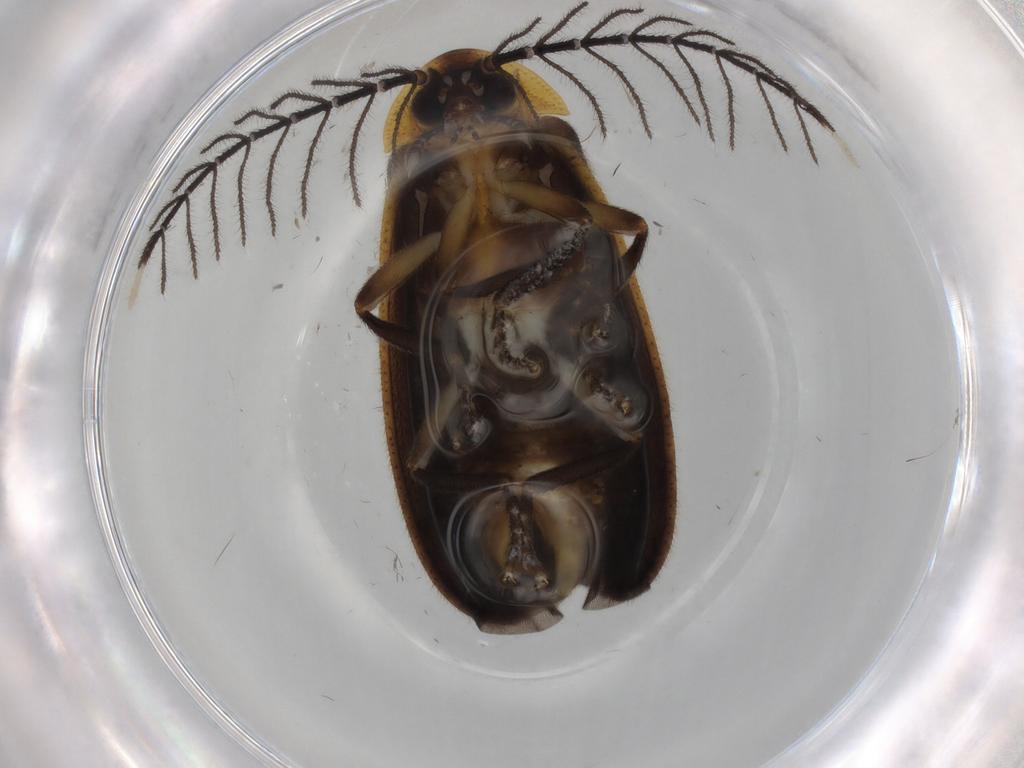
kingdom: Animalia
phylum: Arthropoda
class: Insecta
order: Coleoptera
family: Lampyridae
